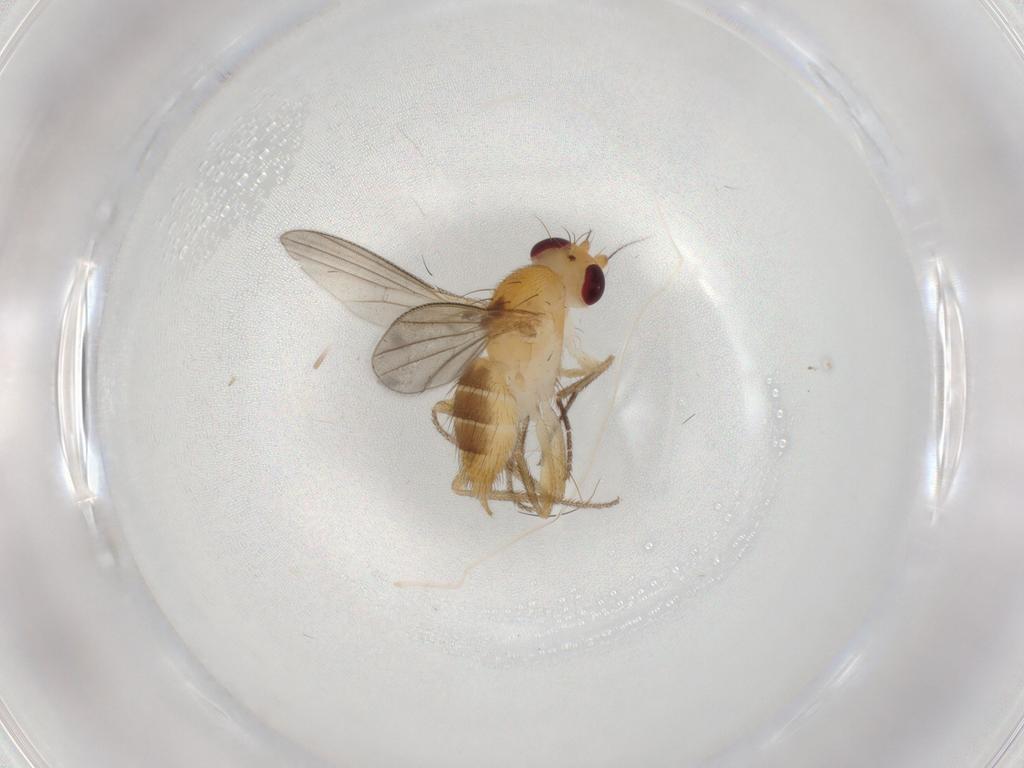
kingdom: Animalia
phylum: Arthropoda
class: Insecta
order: Diptera
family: Clusiidae
